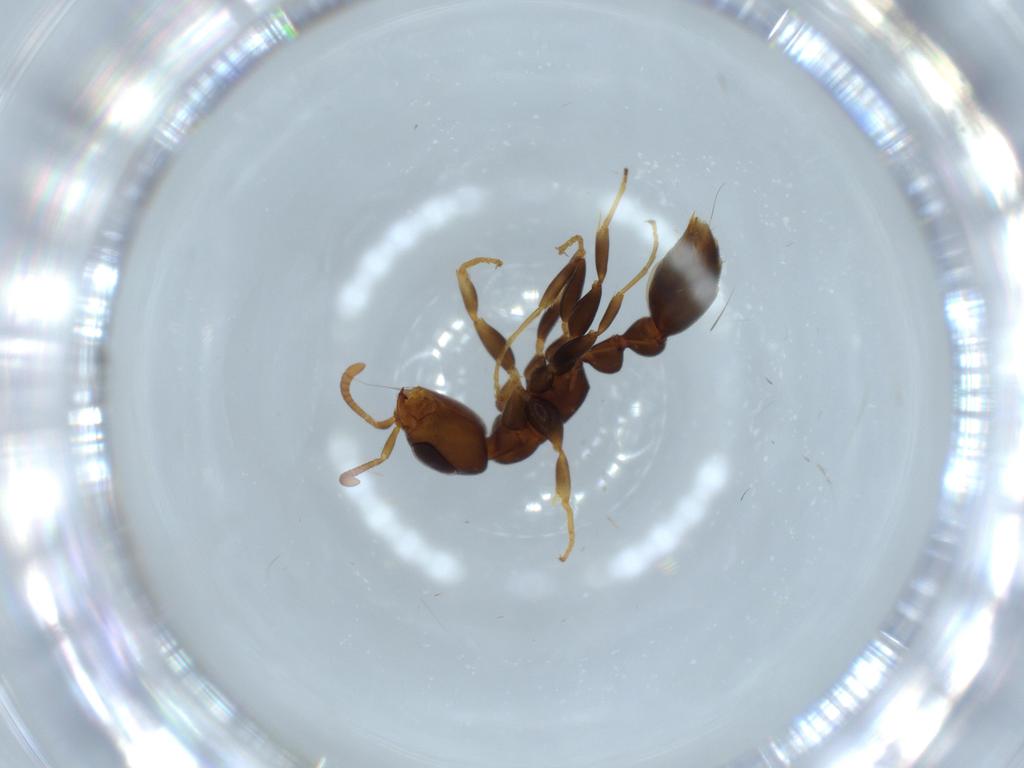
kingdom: Animalia
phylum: Arthropoda
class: Insecta
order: Hymenoptera
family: Formicidae
